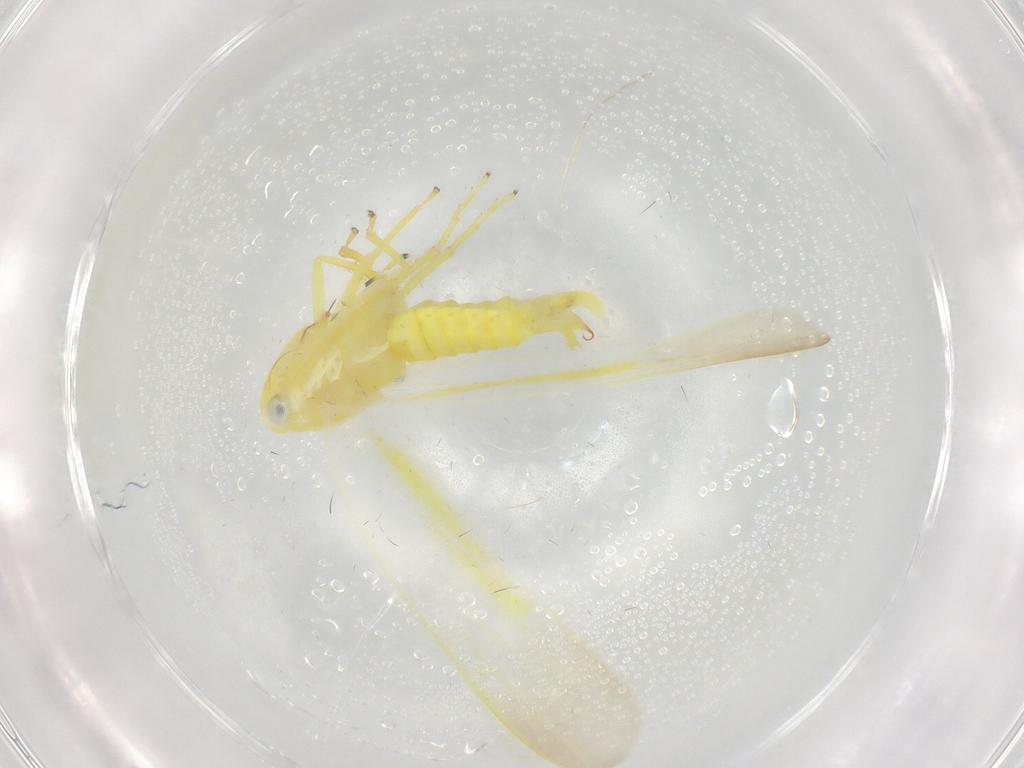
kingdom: Animalia
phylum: Arthropoda
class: Insecta
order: Hemiptera
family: Cicadellidae
